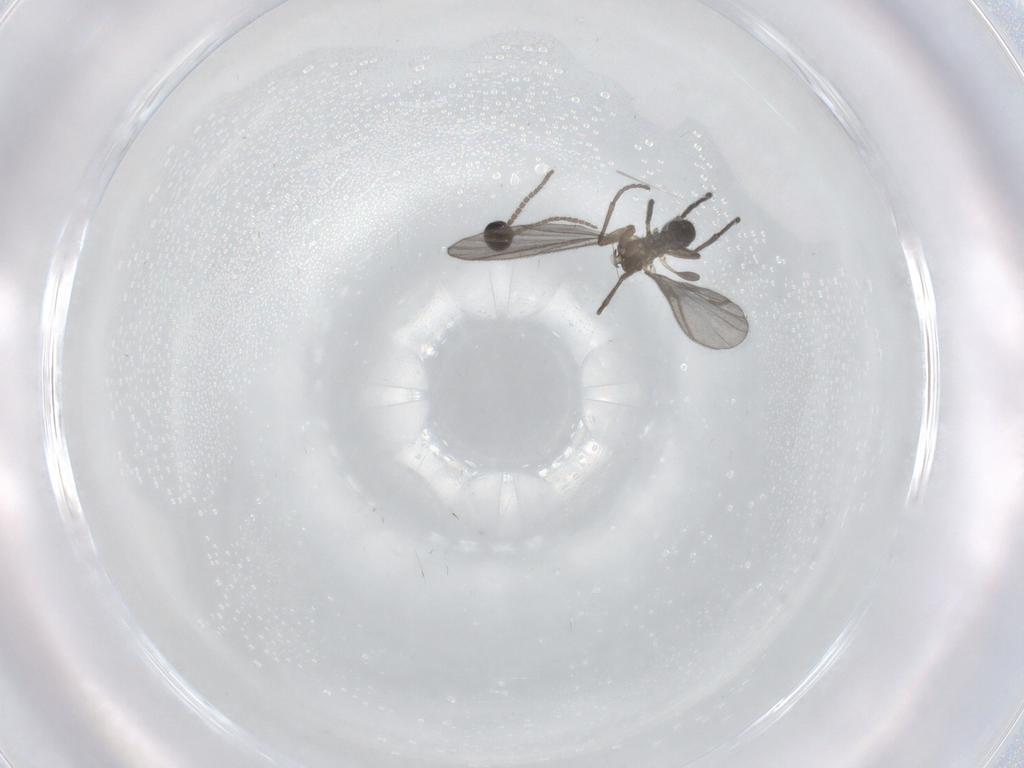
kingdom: Animalia
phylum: Arthropoda
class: Insecta
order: Diptera
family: Sciaridae
